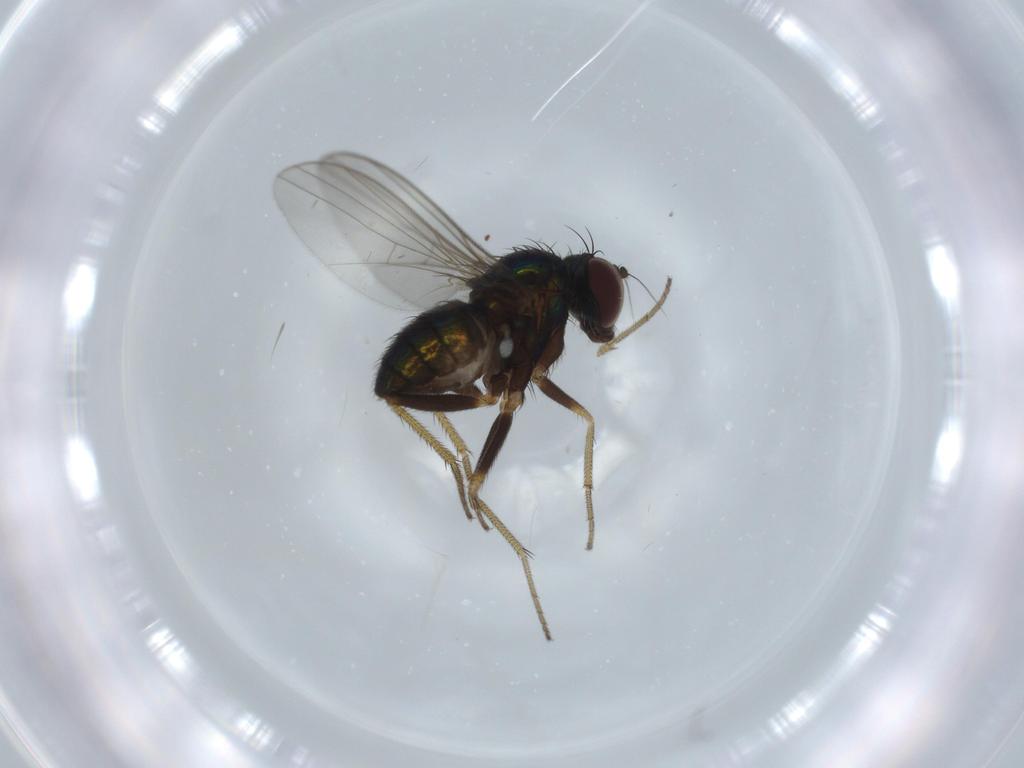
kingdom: Animalia
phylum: Arthropoda
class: Insecta
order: Diptera
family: Dolichopodidae
